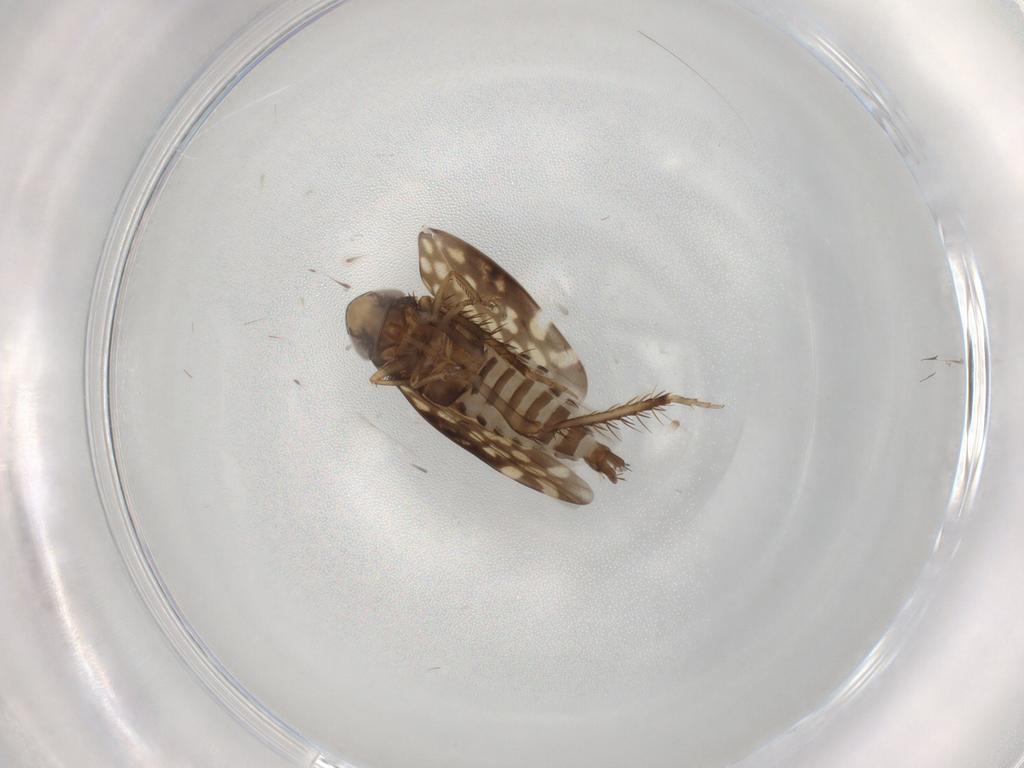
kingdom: Animalia
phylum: Arthropoda
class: Insecta
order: Hemiptera
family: Cicadellidae
